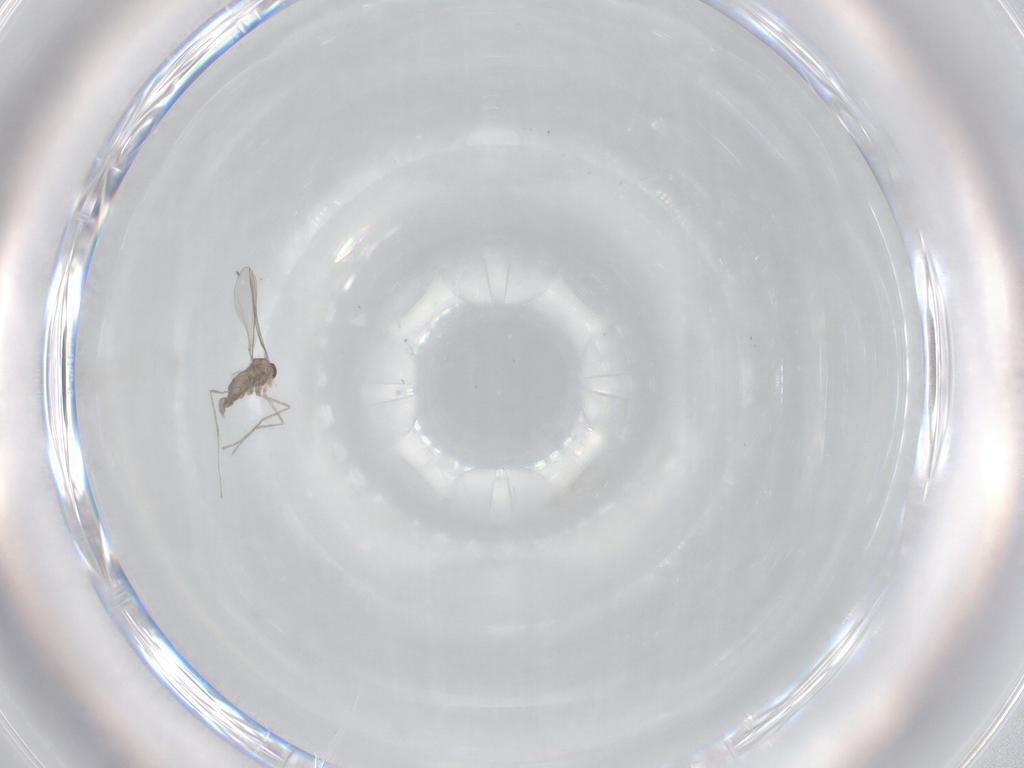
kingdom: Animalia
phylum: Arthropoda
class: Insecta
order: Diptera
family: Cecidomyiidae
